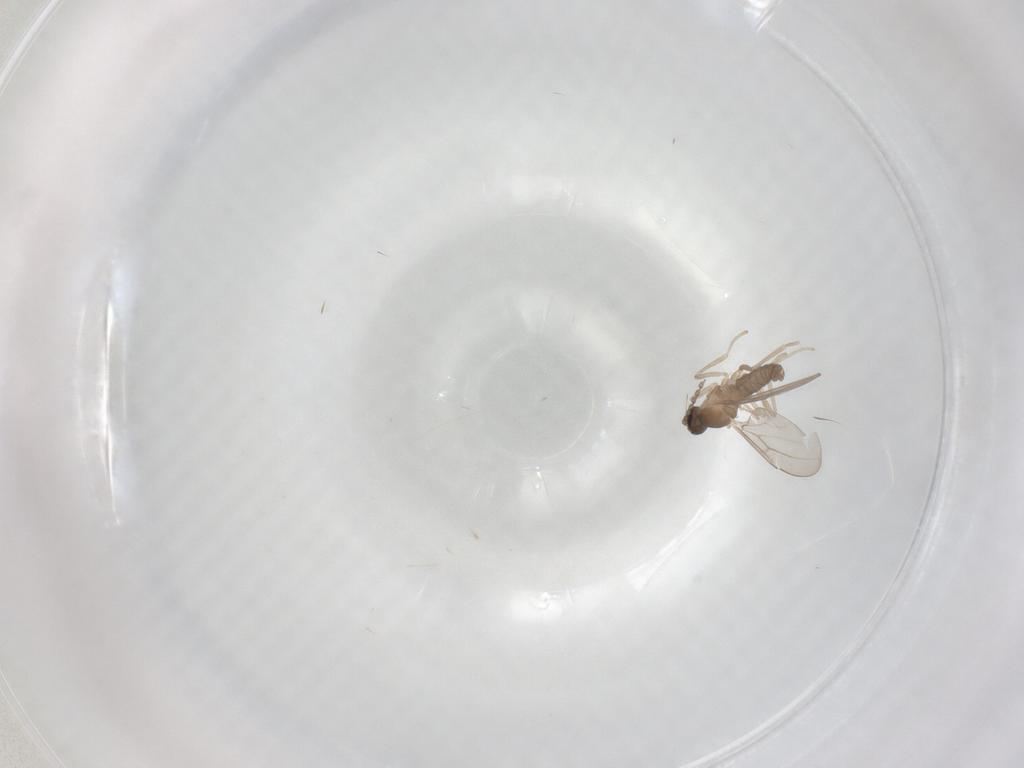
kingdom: Animalia
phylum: Arthropoda
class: Insecta
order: Diptera
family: Cecidomyiidae
